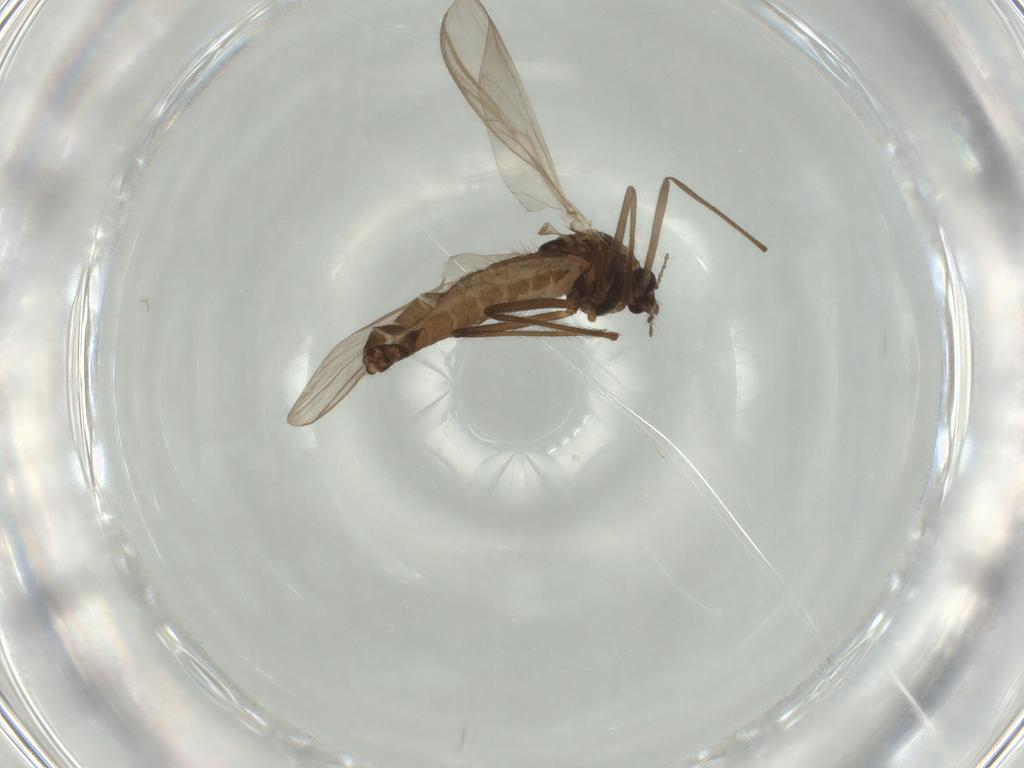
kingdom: Animalia
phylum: Arthropoda
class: Insecta
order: Diptera
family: Chironomidae
